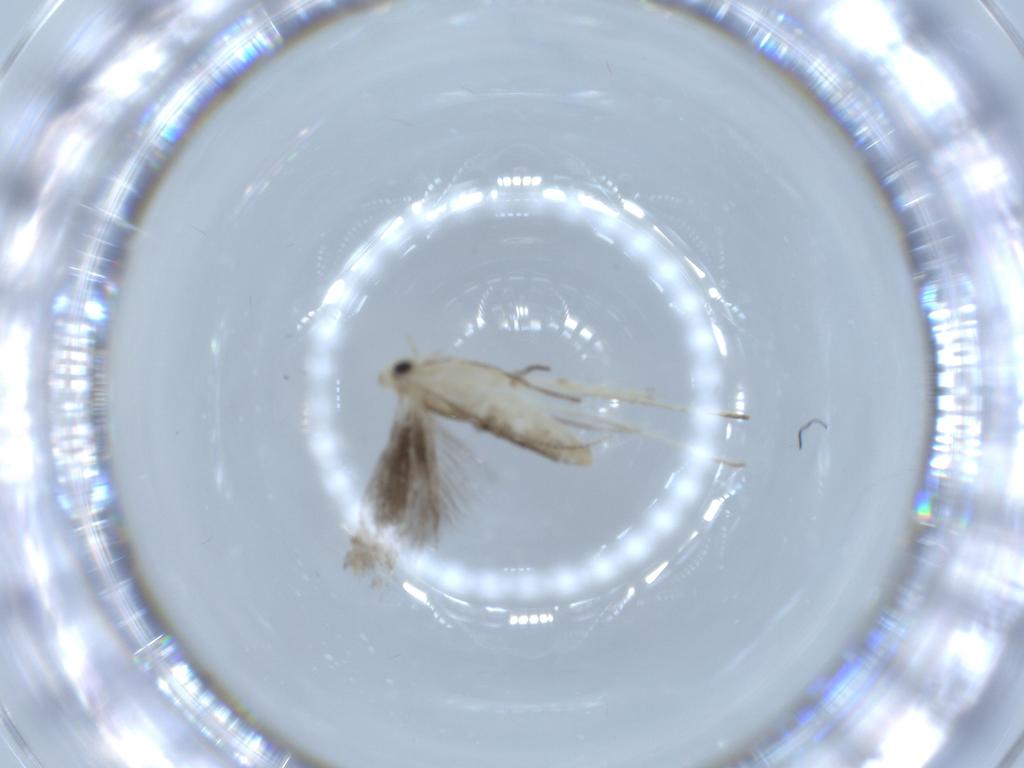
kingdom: Animalia
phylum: Arthropoda
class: Insecta
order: Lepidoptera
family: Gracillariidae
